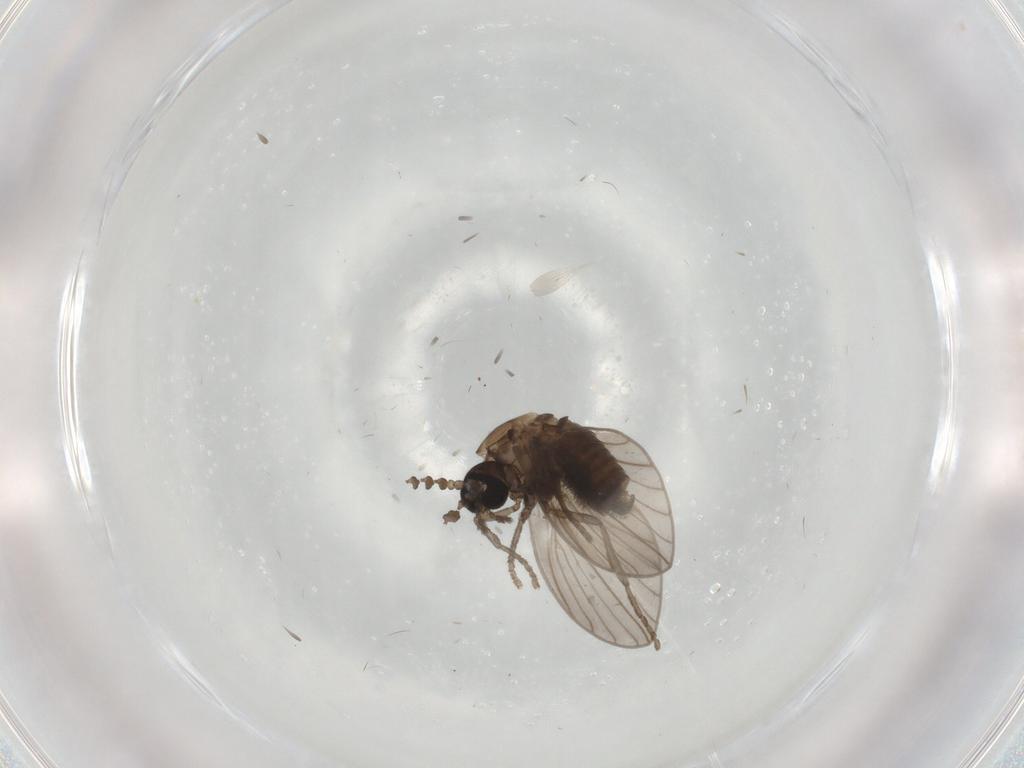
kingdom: Animalia
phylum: Arthropoda
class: Insecta
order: Diptera
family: Psychodidae
